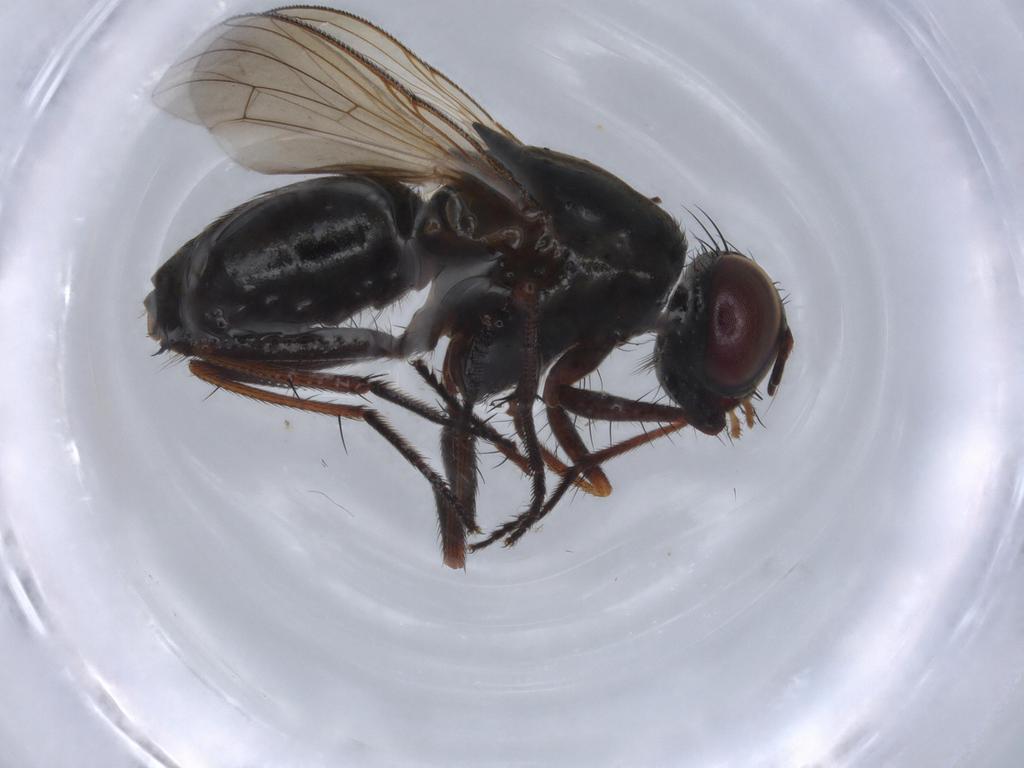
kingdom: Animalia
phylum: Arthropoda
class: Insecta
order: Diptera
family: Muscidae
